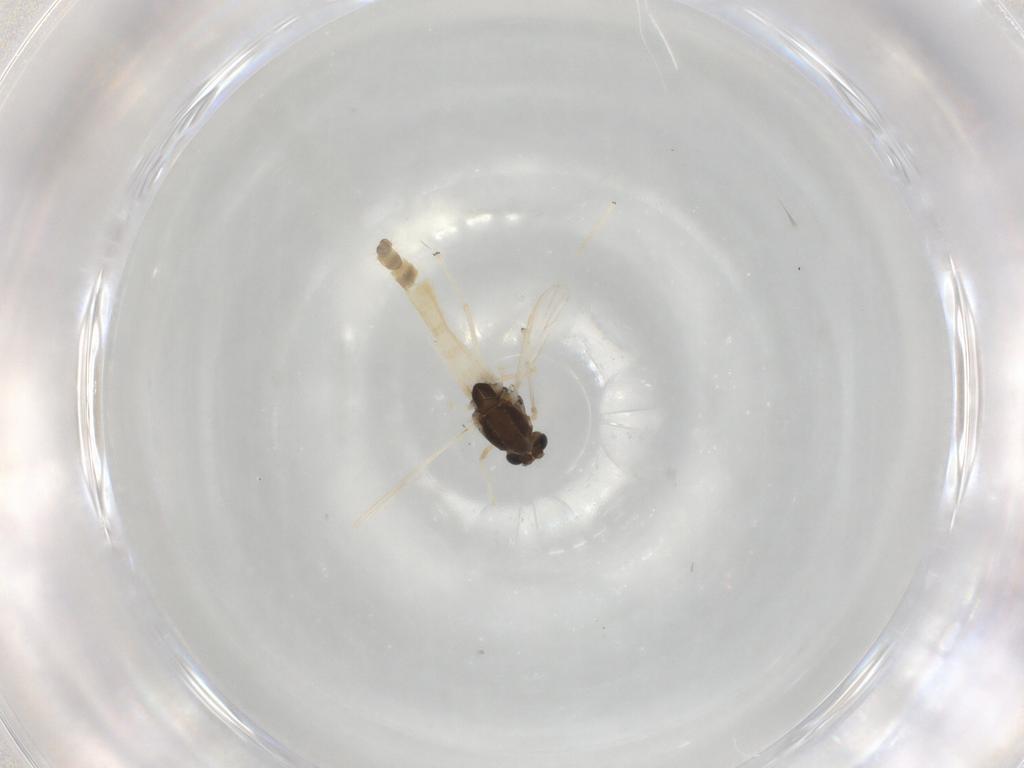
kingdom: Animalia
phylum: Arthropoda
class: Insecta
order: Diptera
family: Chironomidae
